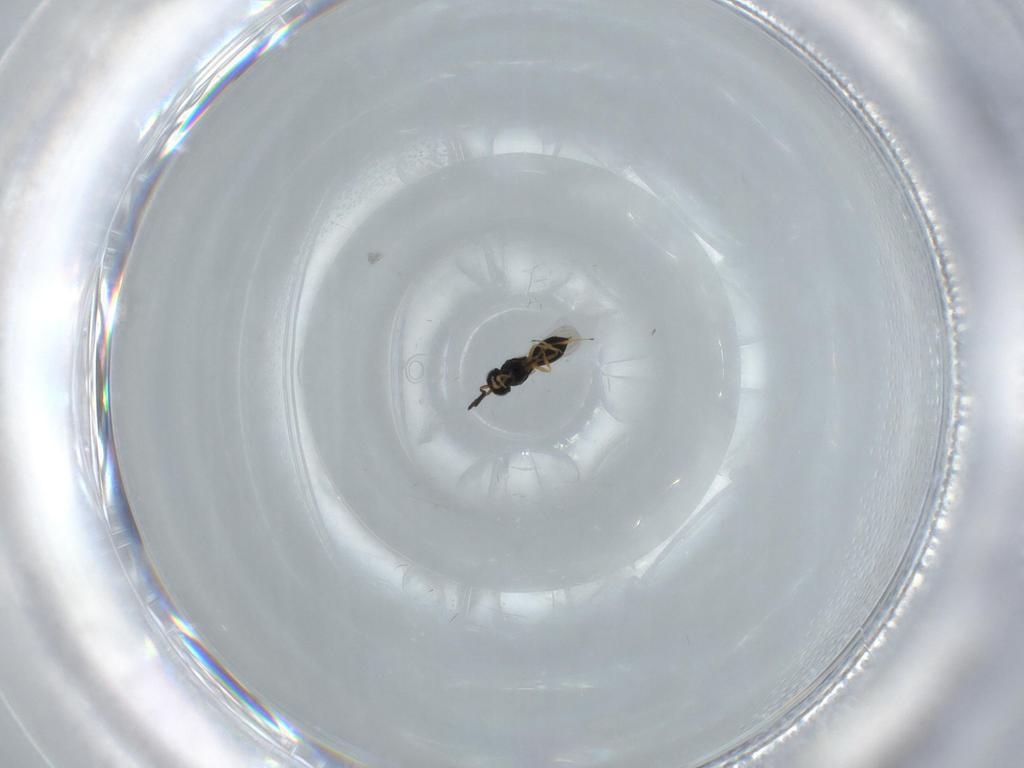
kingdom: Animalia
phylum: Arthropoda
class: Insecta
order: Hymenoptera
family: Scelionidae
